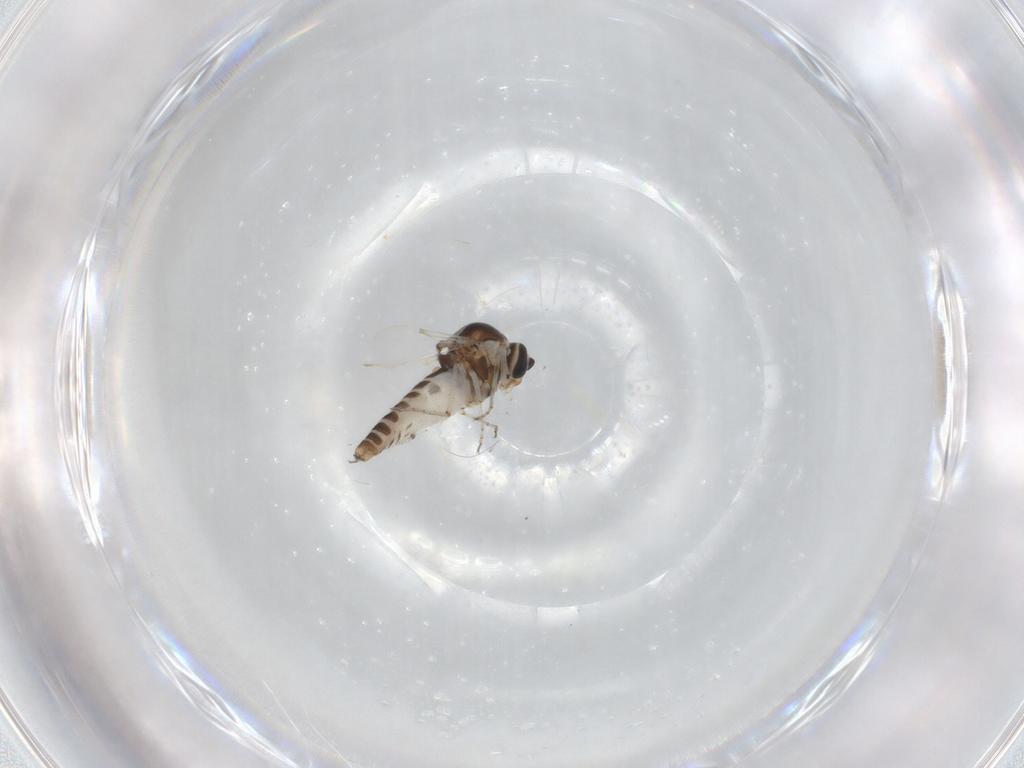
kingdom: Animalia
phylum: Arthropoda
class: Insecta
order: Diptera
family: Ceratopogonidae
